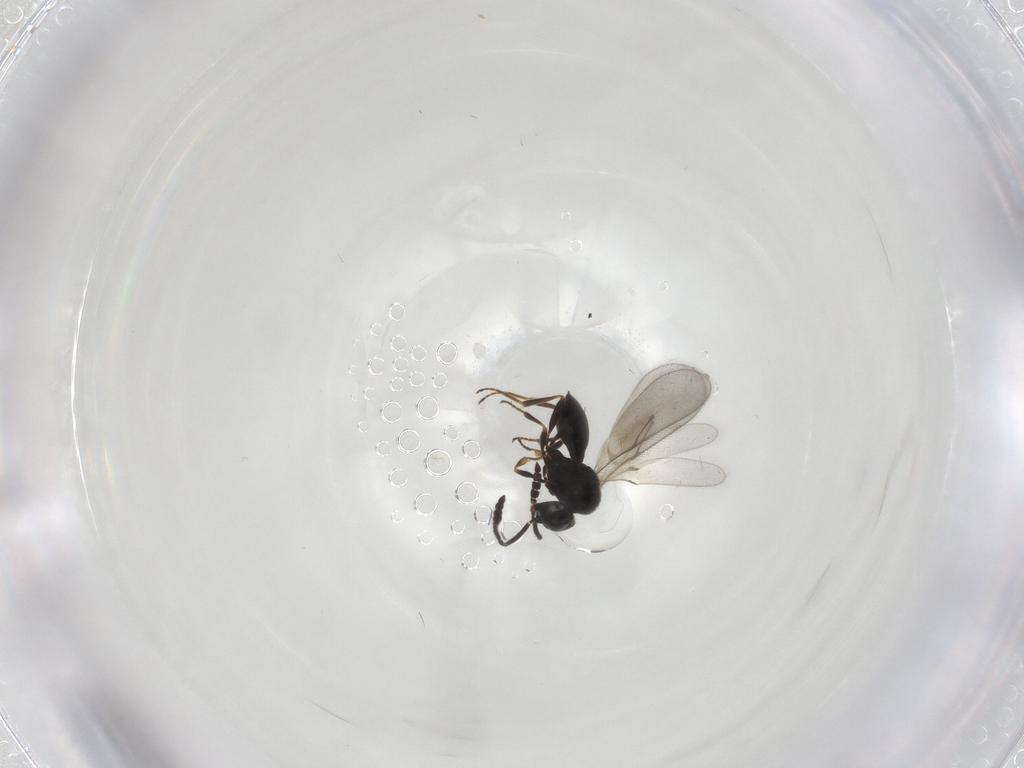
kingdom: Animalia
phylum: Arthropoda
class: Insecta
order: Hymenoptera
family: Scelionidae
